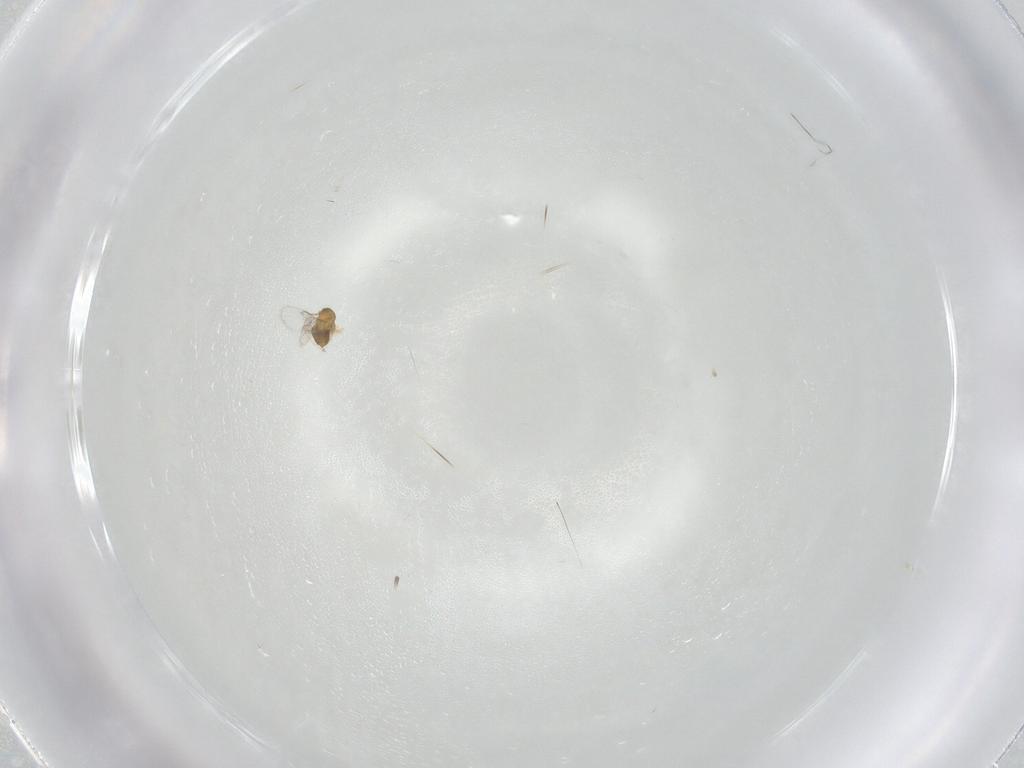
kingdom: Animalia
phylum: Arthropoda
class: Insecta
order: Hymenoptera
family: Trichogrammatidae
